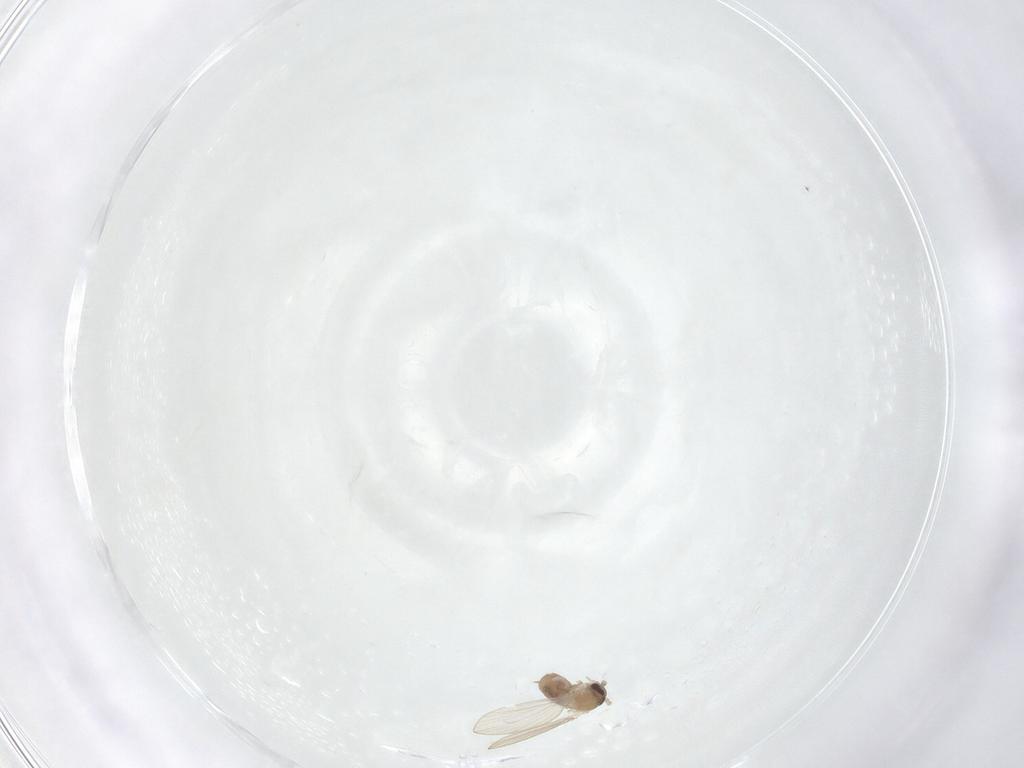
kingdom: Animalia
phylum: Arthropoda
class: Insecta
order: Diptera
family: Psychodidae
